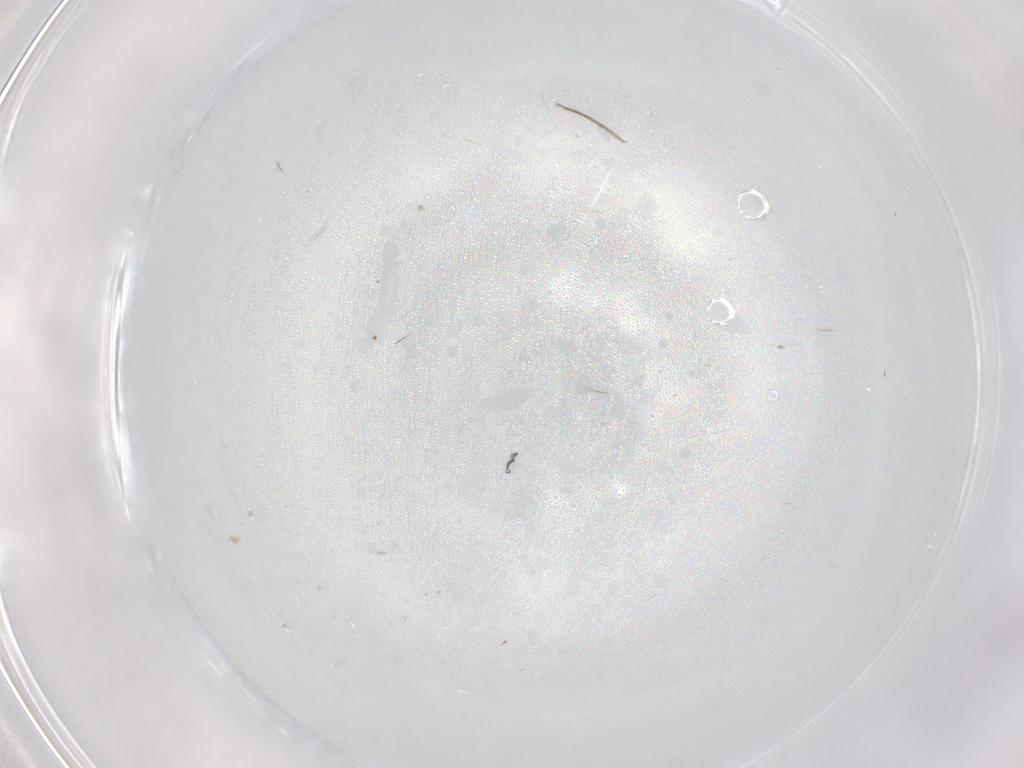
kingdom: Animalia
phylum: Arthropoda
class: Insecta
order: Diptera
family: Chironomidae
